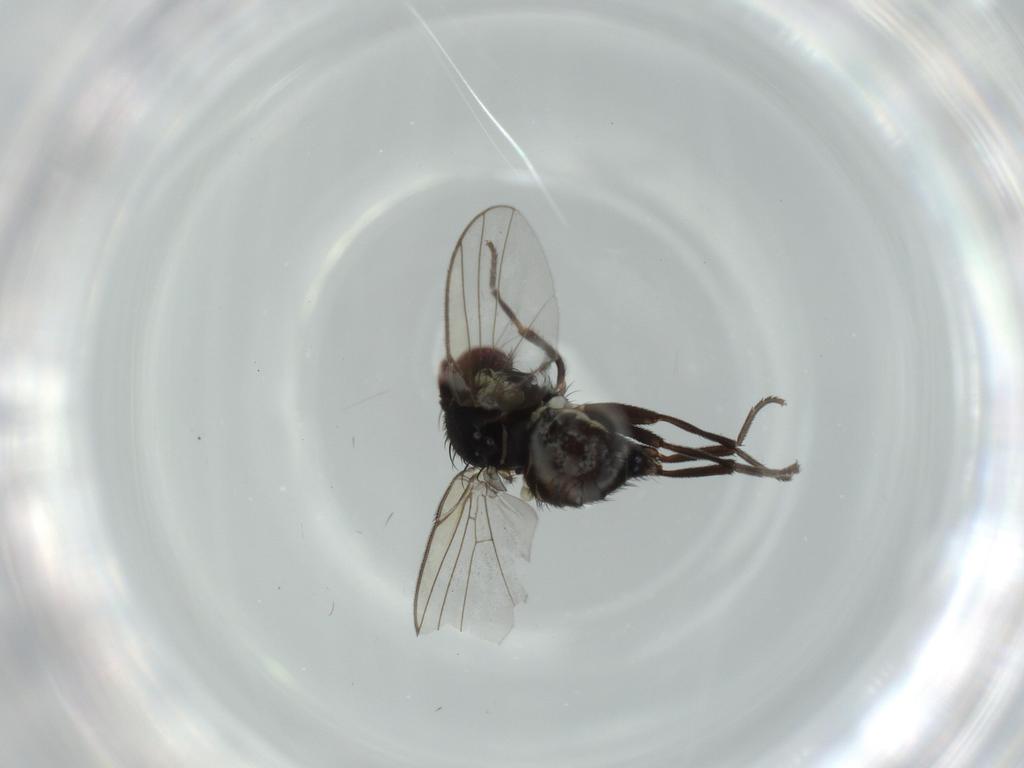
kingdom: Animalia
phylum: Arthropoda
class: Insecta
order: Diptera
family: Agromyzidae
